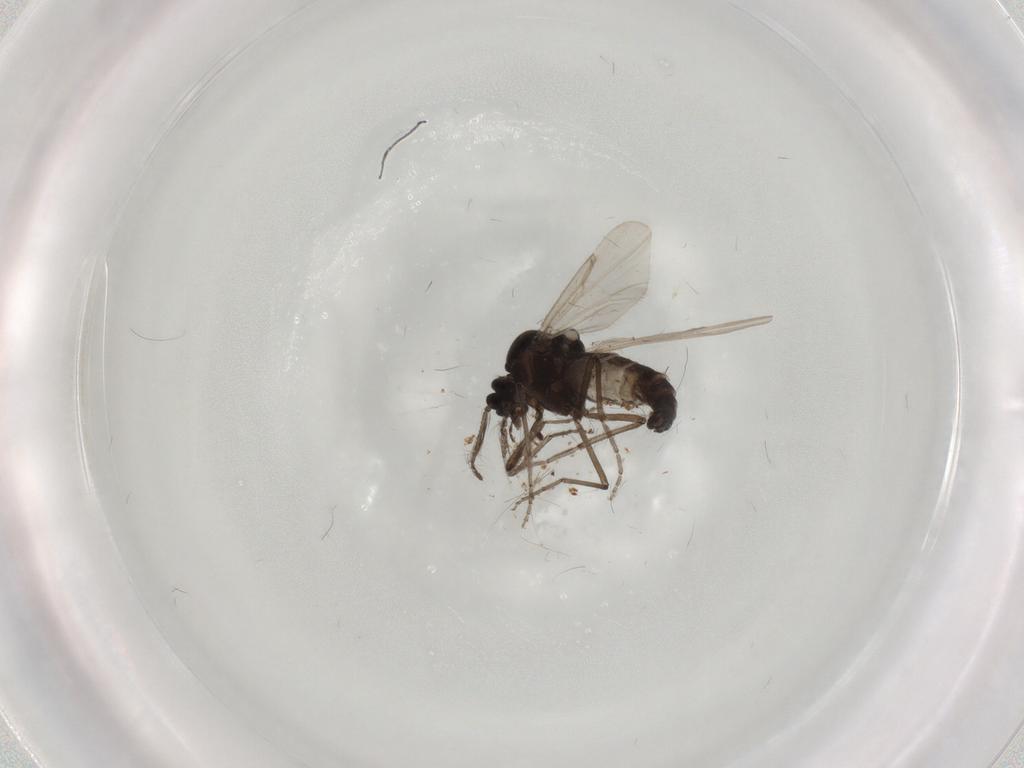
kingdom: Animalia
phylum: Arthropoda
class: Insecta
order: Diptera
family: Ceratopogonidae
